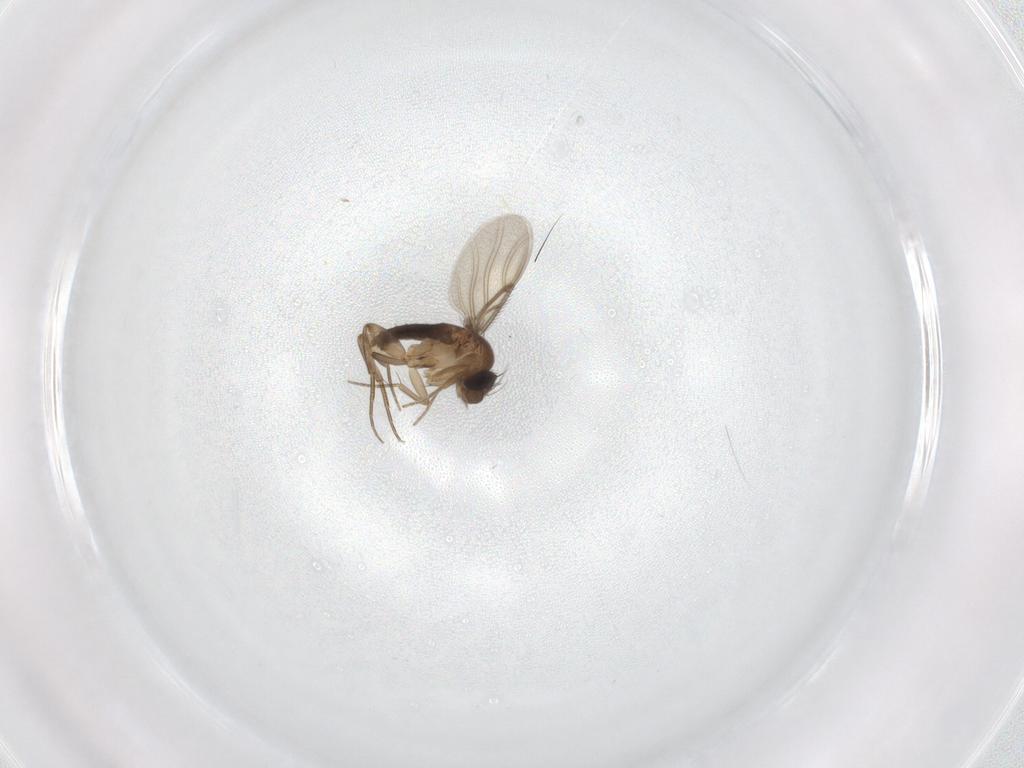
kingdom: Animalia
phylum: Arthropoda
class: Insecta
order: Diptera
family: Phoridae
